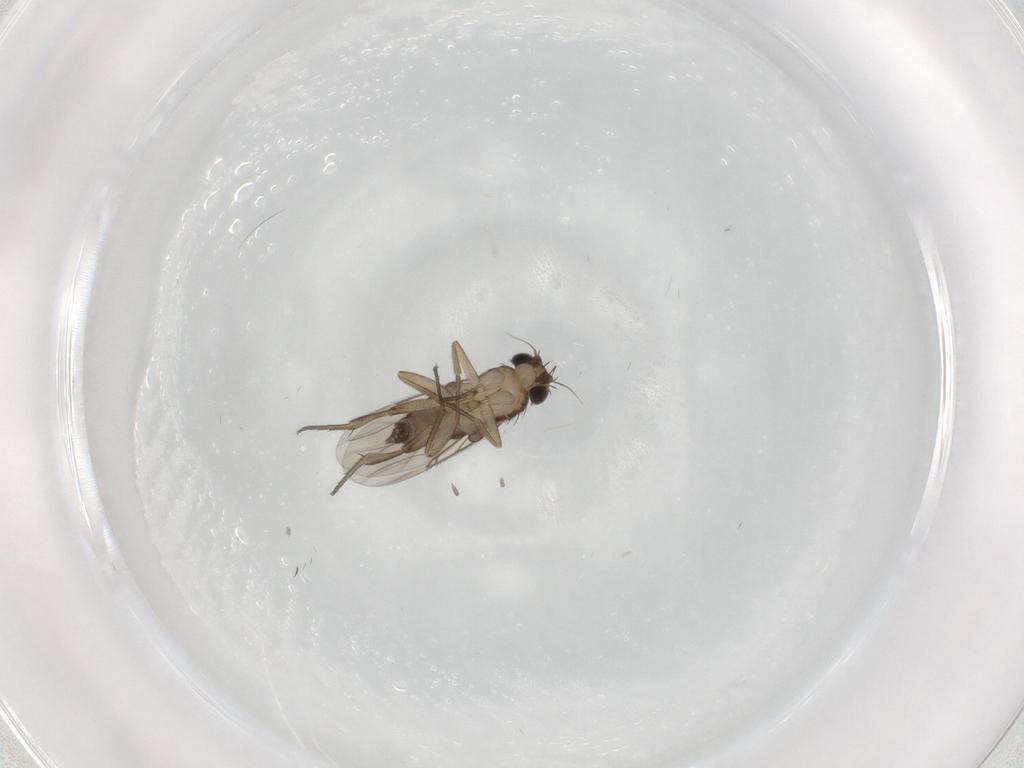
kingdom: Animalia
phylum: Arthropoda
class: Insecta
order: Diptera
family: Phoridae
